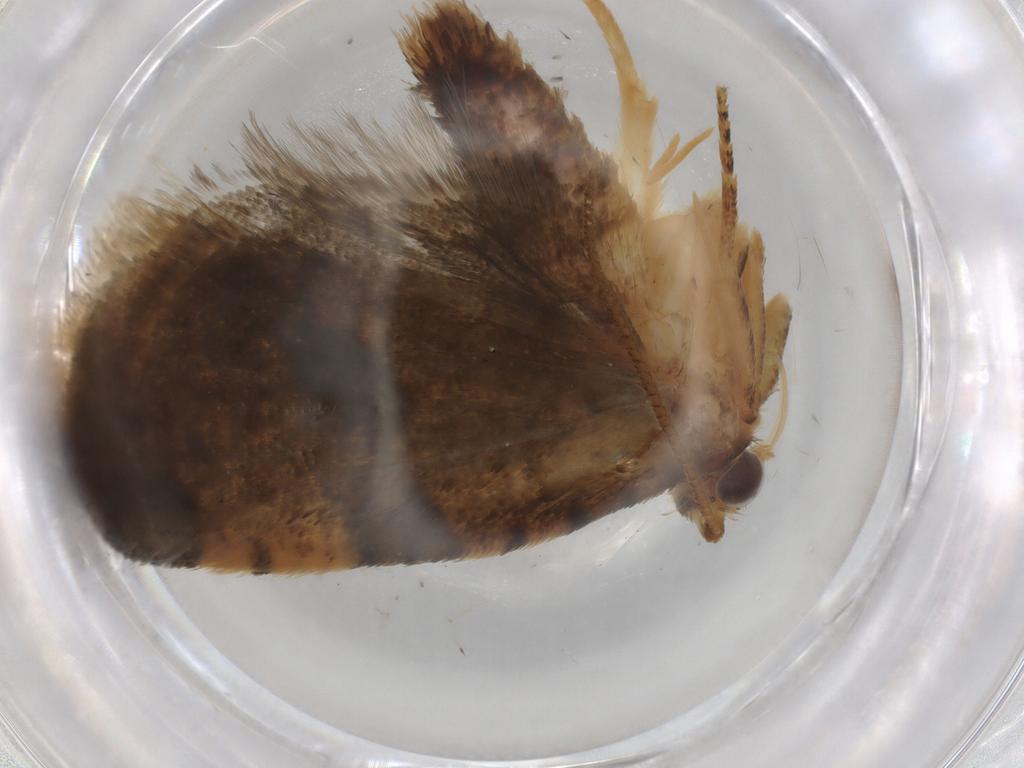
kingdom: Animalia
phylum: Arthropoda
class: Insecta
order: Lepidoptera
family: Tortricidae
